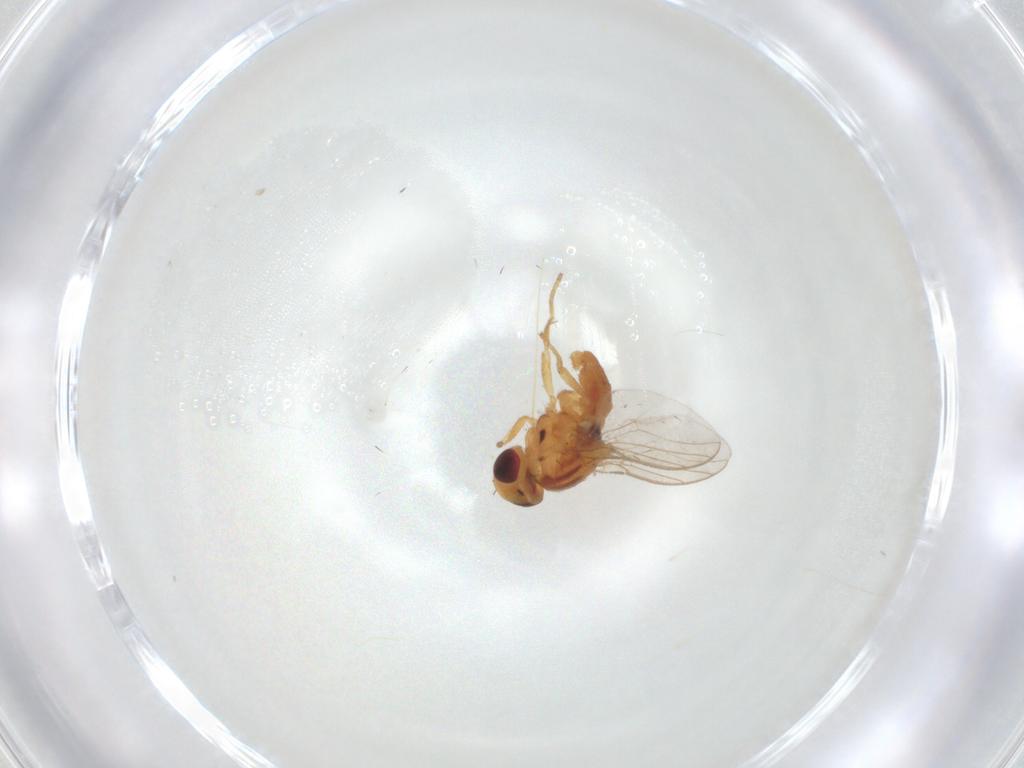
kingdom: Animalia
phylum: Arthropoda
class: Insecta
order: Diptera
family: Chloropidae
